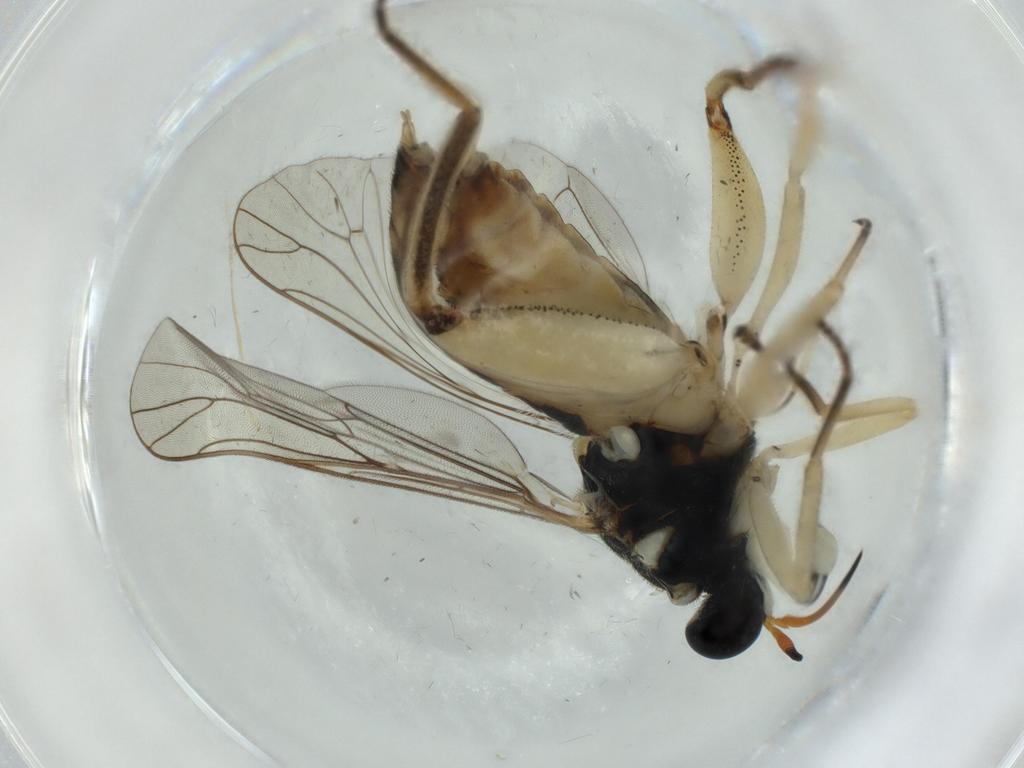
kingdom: Animalia
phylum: Arthropoda
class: Insecta
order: Diptera
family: Phoridae
